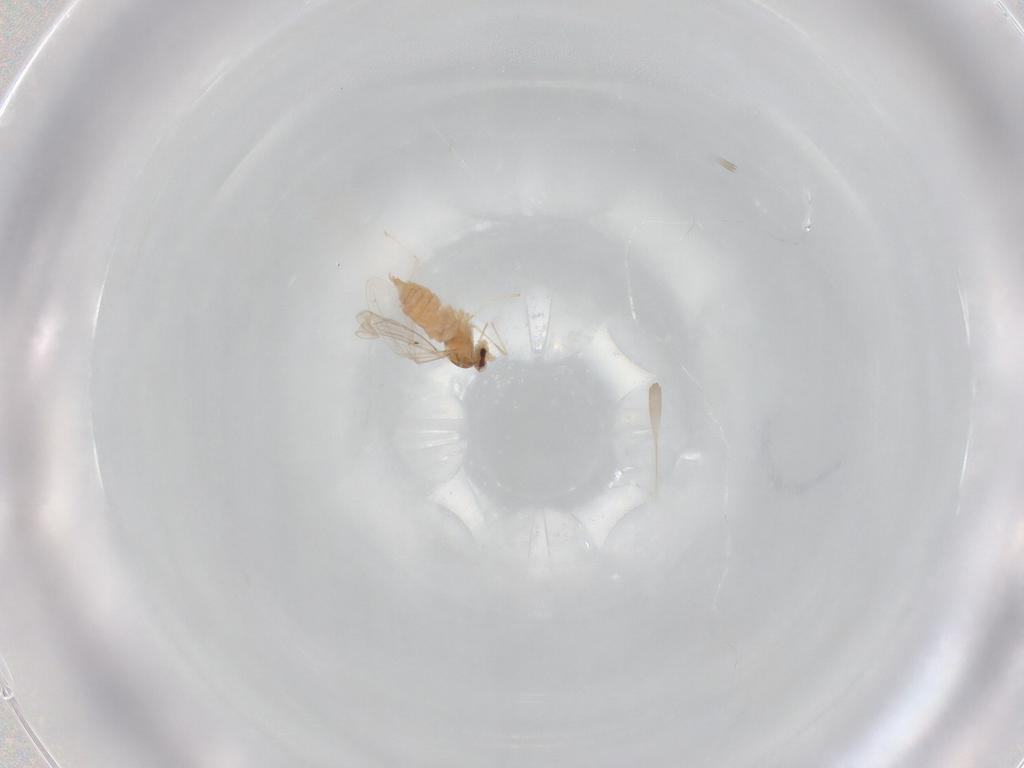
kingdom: Animalia
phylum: Arthropoda
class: Insecta
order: Diptera
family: Cecidomyiidae
